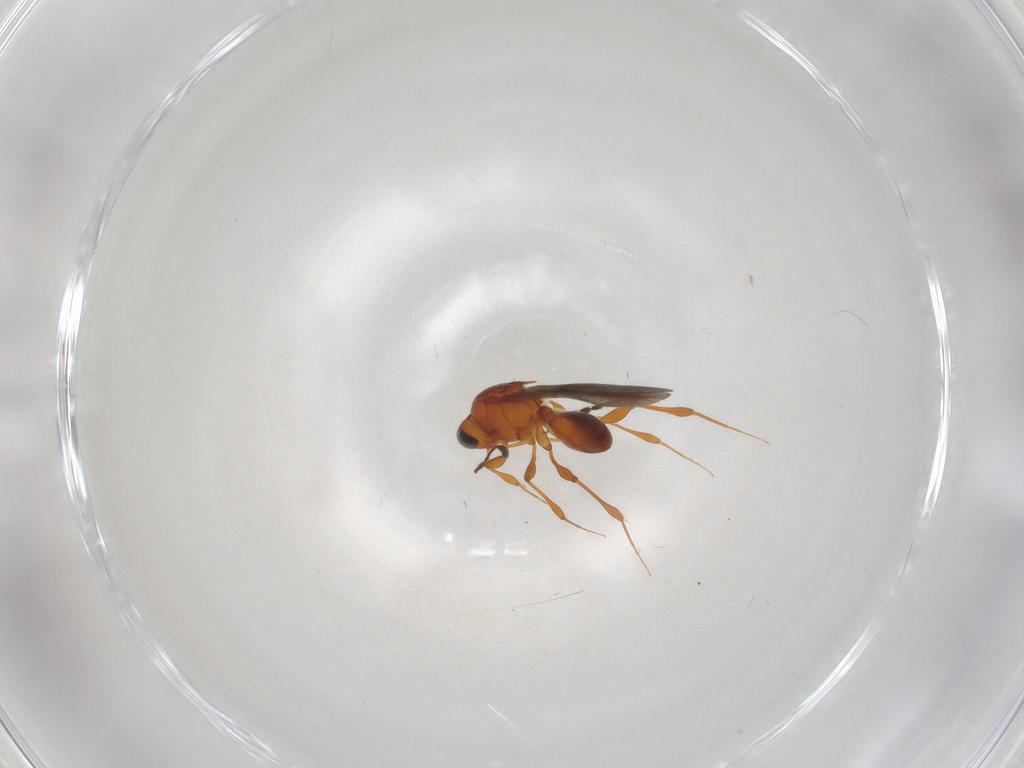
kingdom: Animalia
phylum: Arthropoda
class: Insecta
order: Hymenoptera
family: Platygastridae
